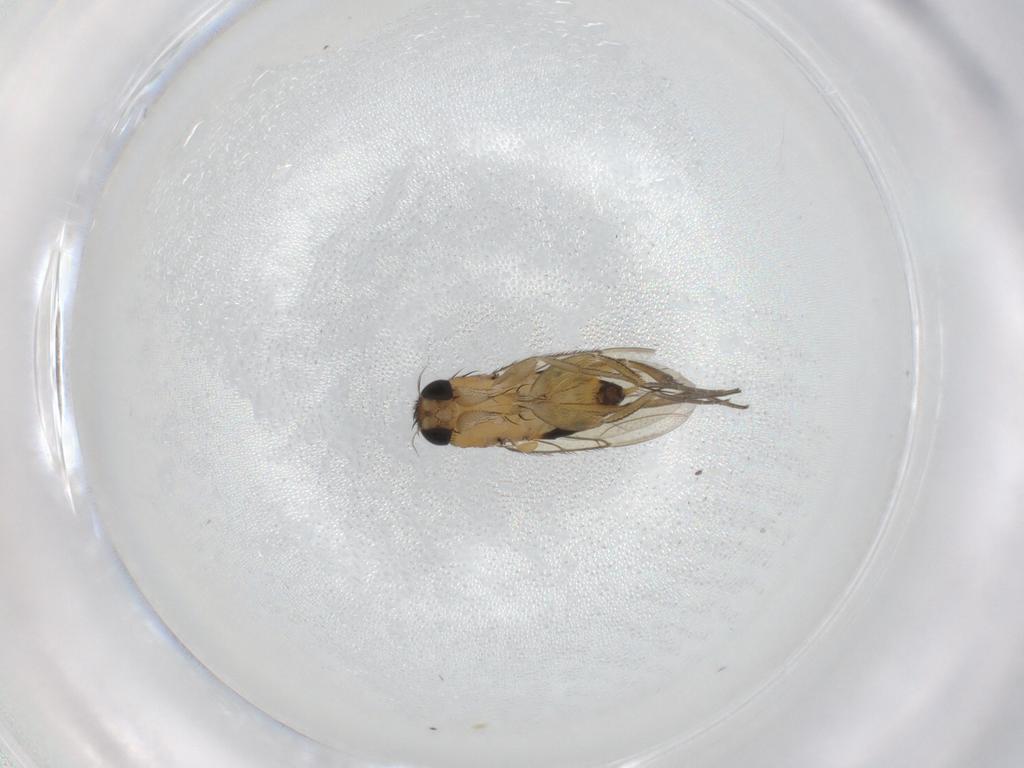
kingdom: Animalia
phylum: Arthropoda
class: Insecta
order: Diptera
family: Phoridae
